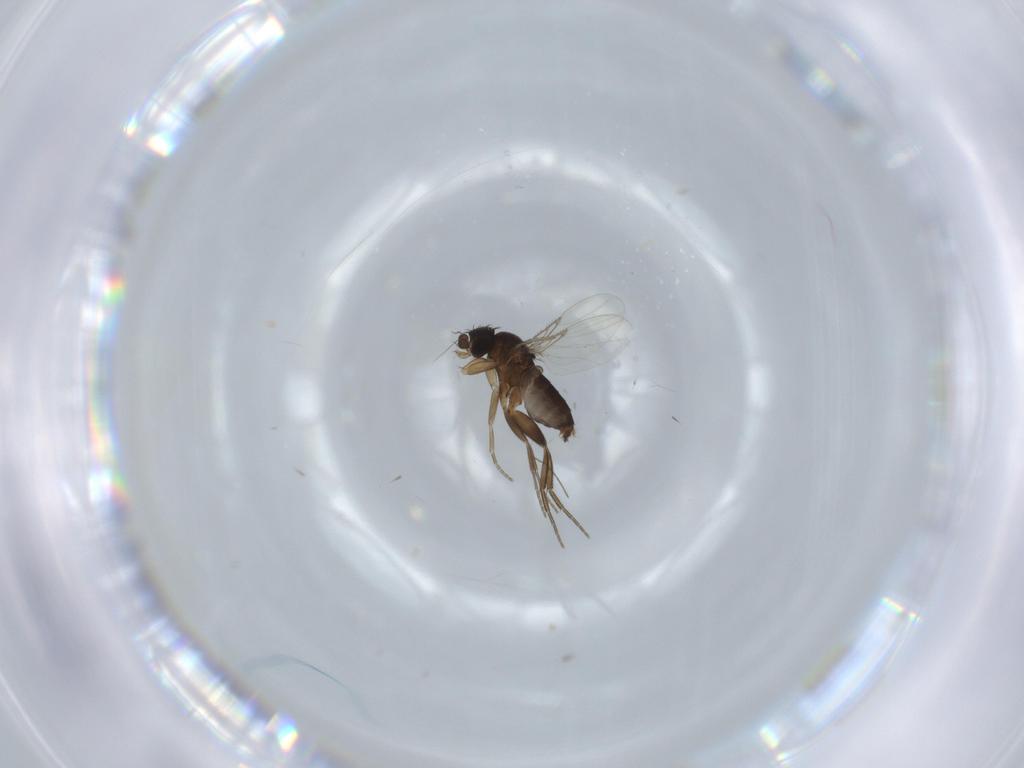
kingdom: Animalia
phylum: Arthropoda
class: Insecta
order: Diptera
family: Phoridae
